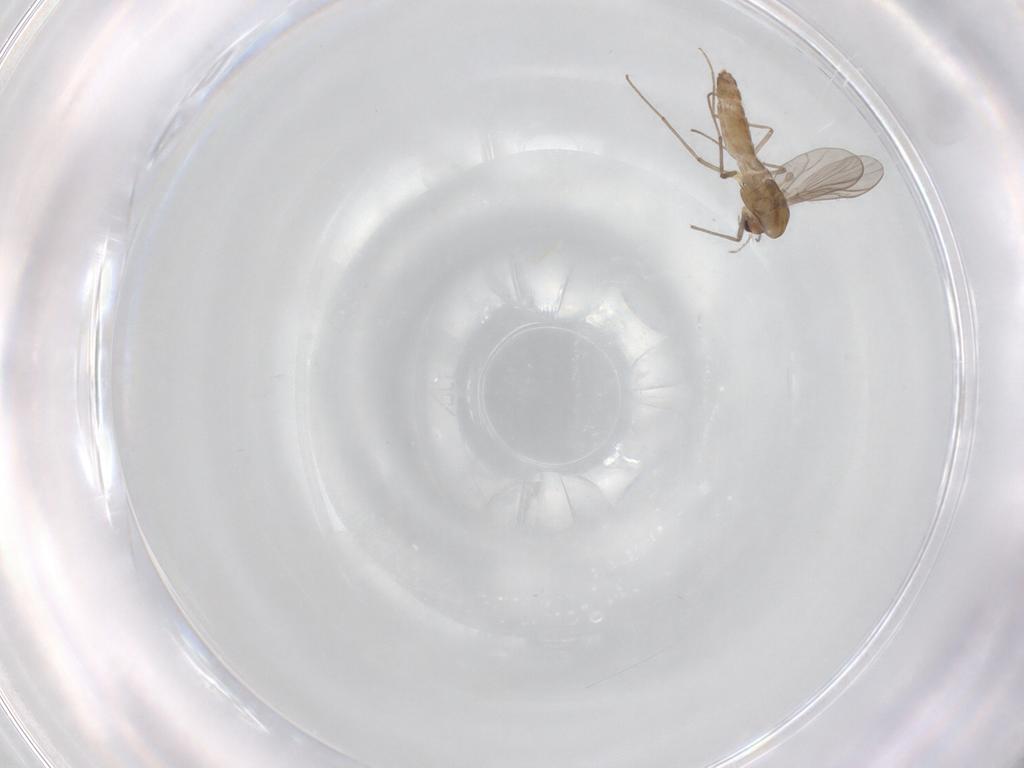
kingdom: Animalia
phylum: Arthropoda
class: Insecta
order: Diptera
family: Chironomidae
